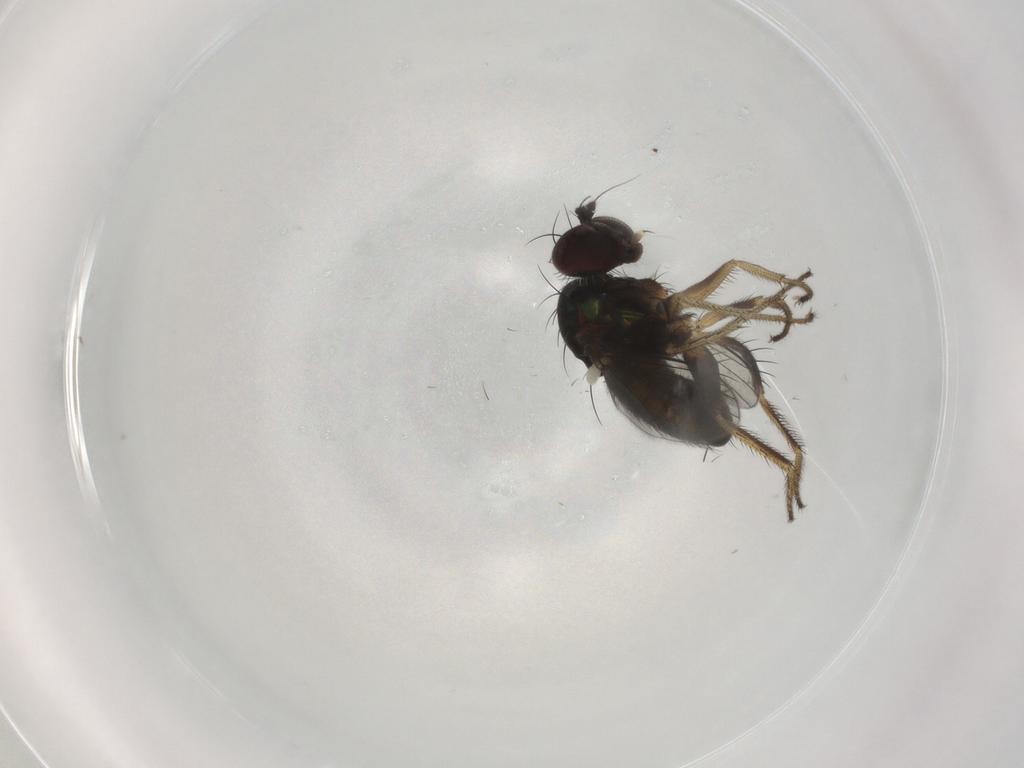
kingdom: Animalia
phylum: Arthropoda
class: Insecta
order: Diptera
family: Dolichopodidae
